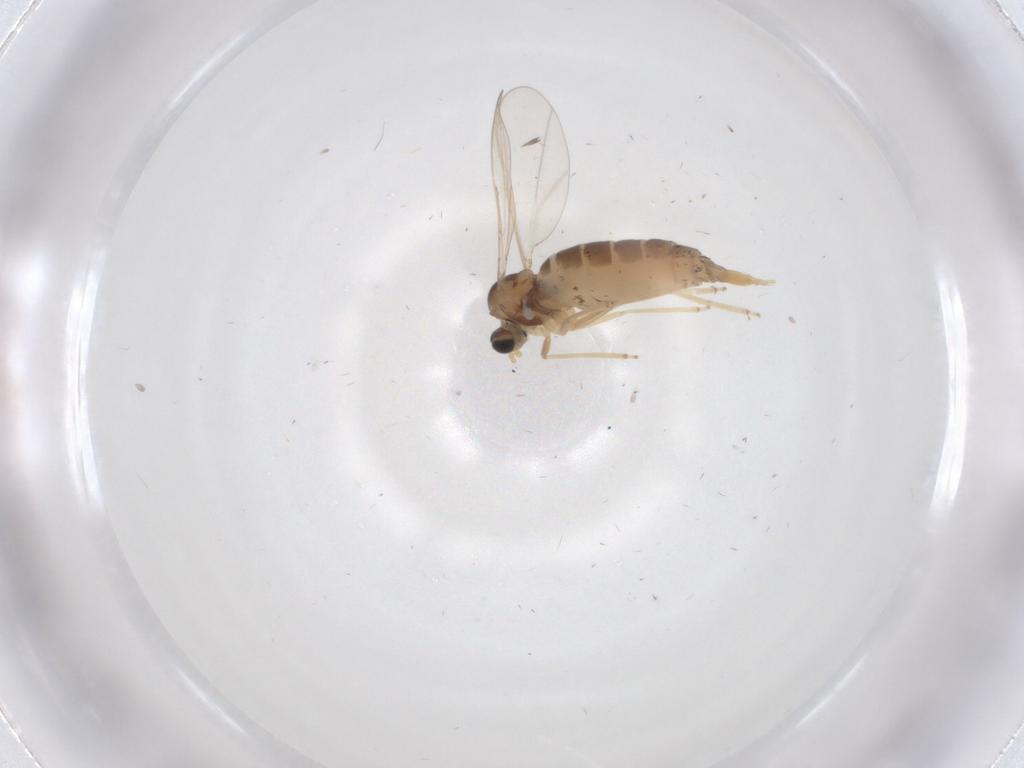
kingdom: Animalia
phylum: Arthropoda
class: Insecta
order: Diptera
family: Cecidomyiidae
